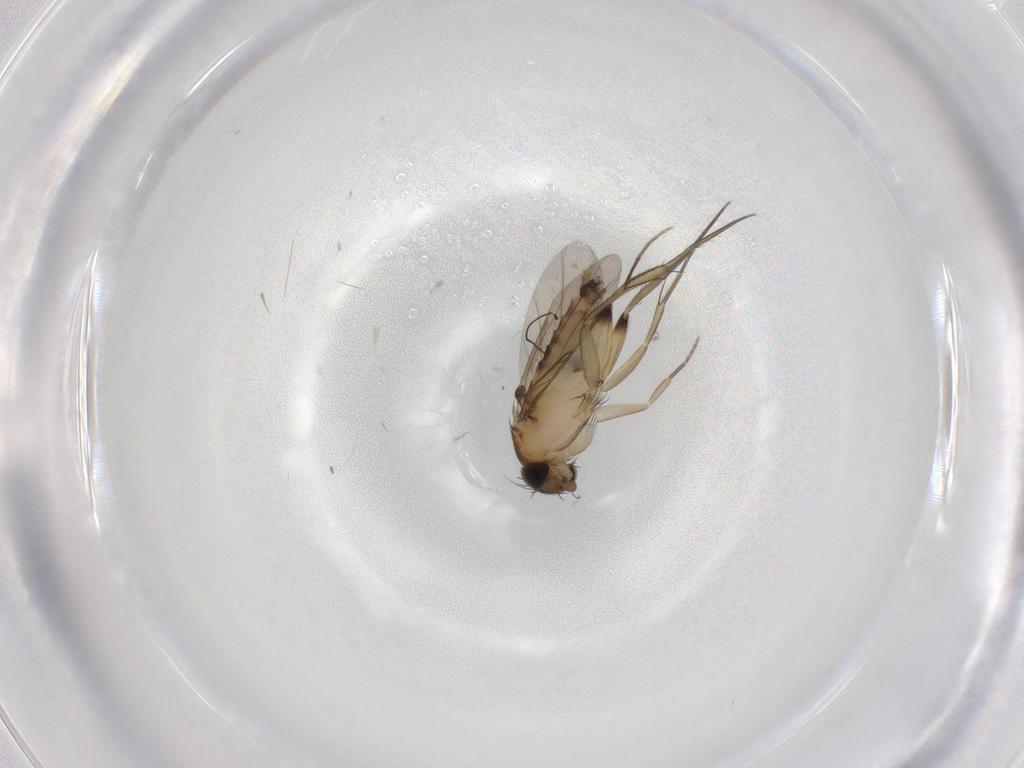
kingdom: Animalia
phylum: Arthropoda
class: Insecta
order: Diptera
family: Phoridae
